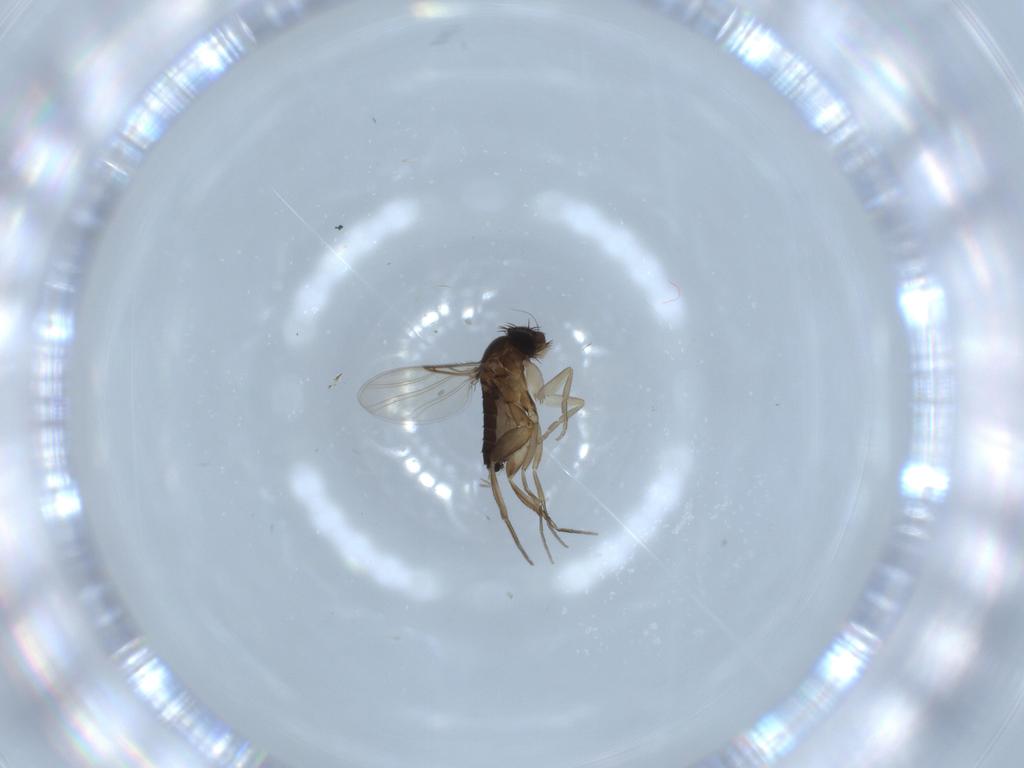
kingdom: Animalia
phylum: Arthropoda
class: Insecta
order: Diptera
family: Phoridae
